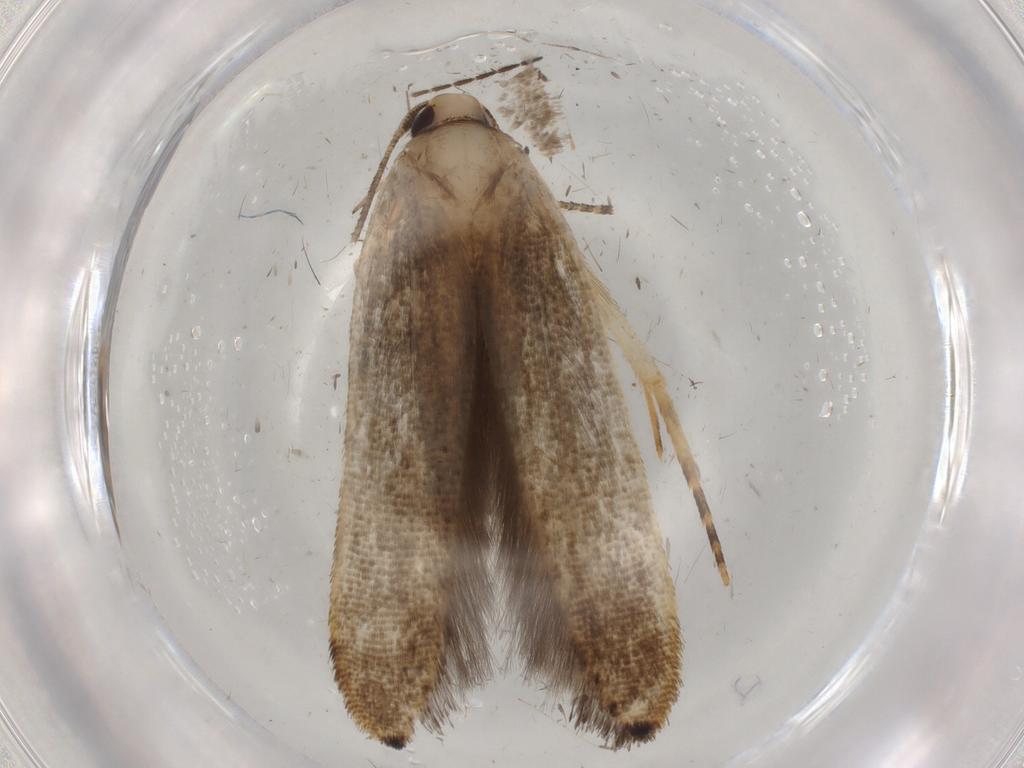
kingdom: Animalia
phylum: Arthropoda
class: Insecta
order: Lepidoptera
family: Cosmopterigidae
